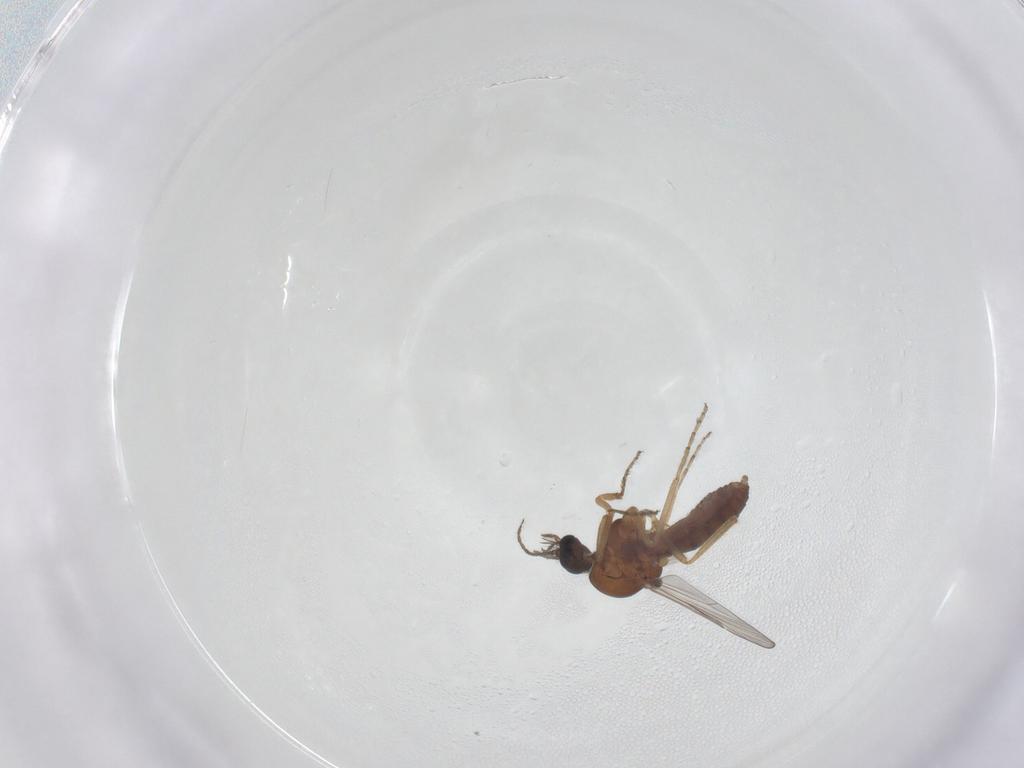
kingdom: Animalia
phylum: Arthropoda
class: Insecta
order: Diptera
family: Ceratopogonidae
